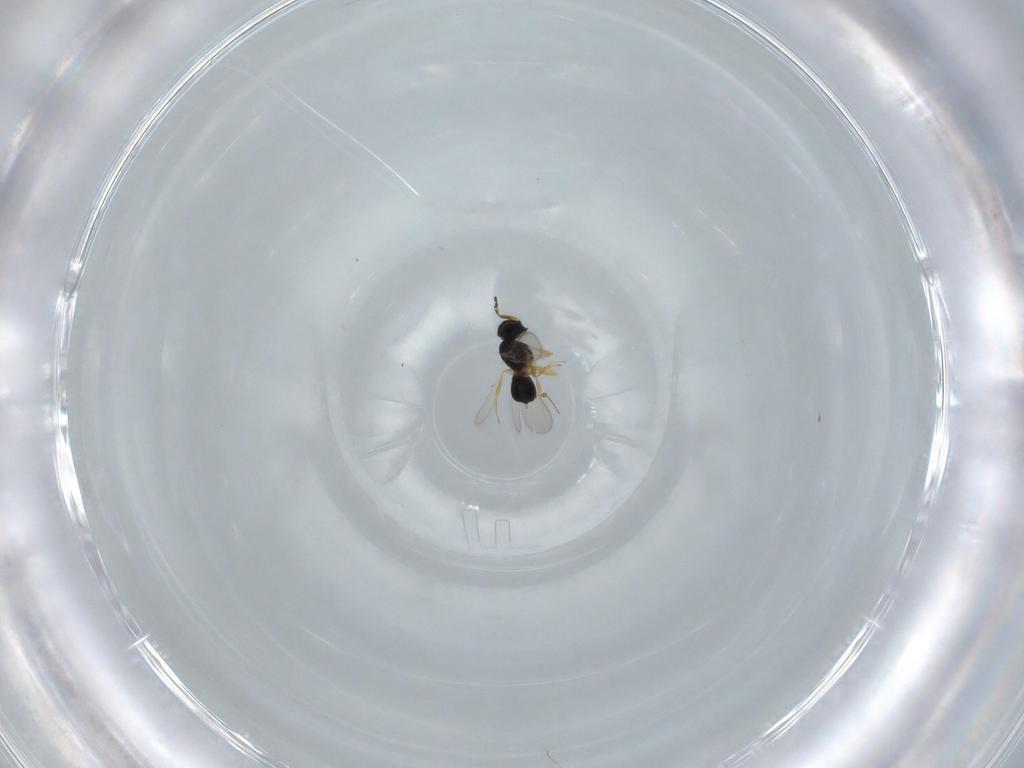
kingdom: Animalia
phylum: Arthropoda
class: Insecta
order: Hymenoptera
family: Scelionidae
